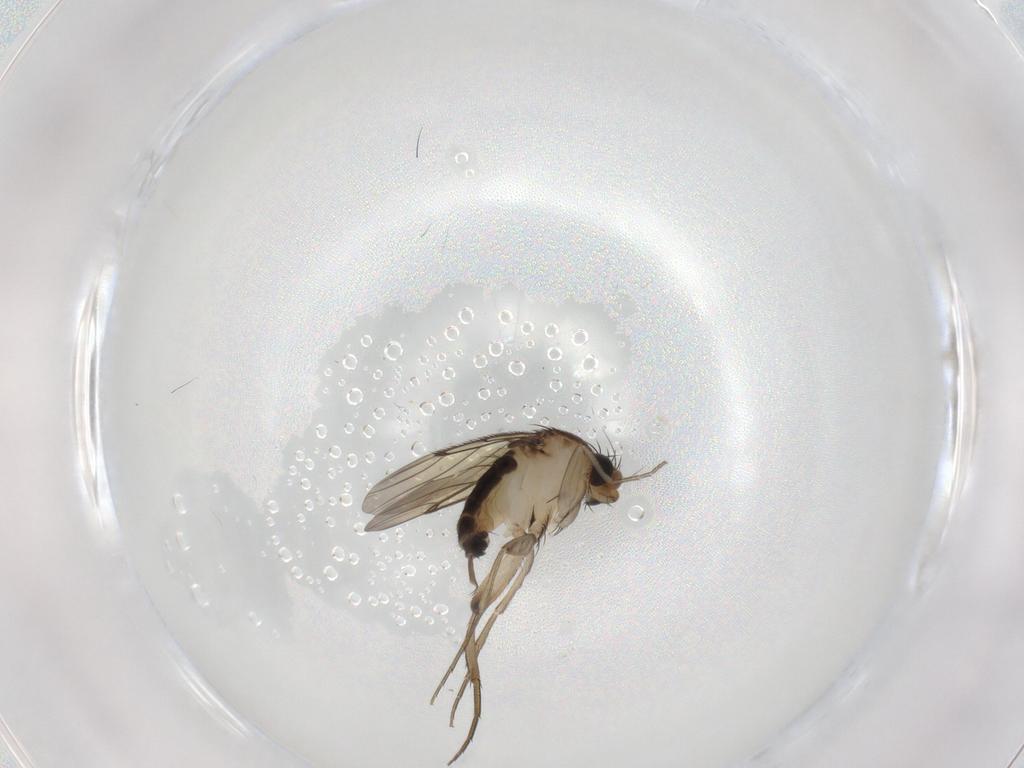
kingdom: Animalia
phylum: Arthropoda
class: Insecta
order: Diptera
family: Phoridae
